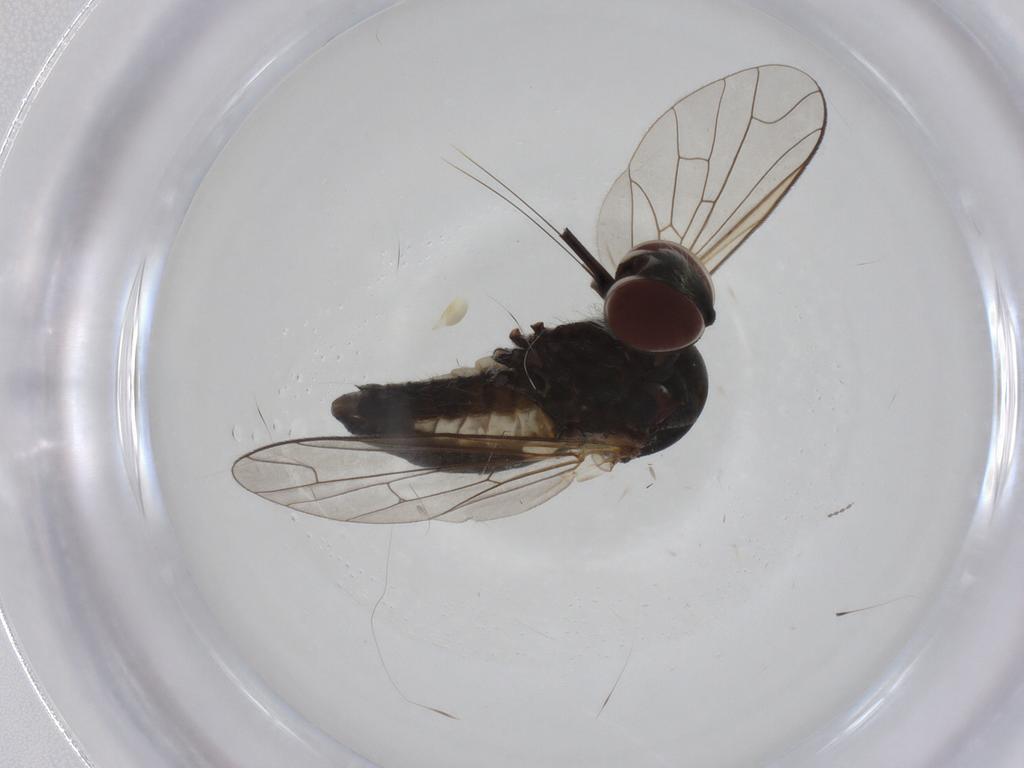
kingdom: Animalia
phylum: Arthropoda
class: Insecta
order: Diptera
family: Bombyliidae
